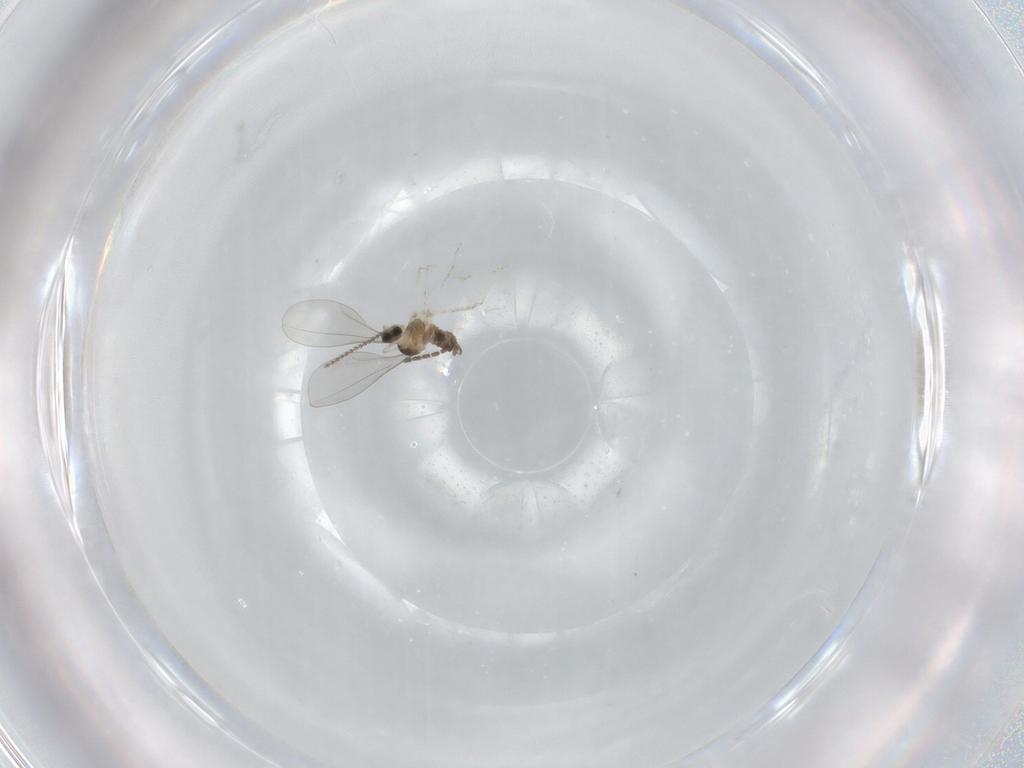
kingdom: Animalia
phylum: Arthropoda
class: Insecta
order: Diptera
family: Cecidomyiidae
